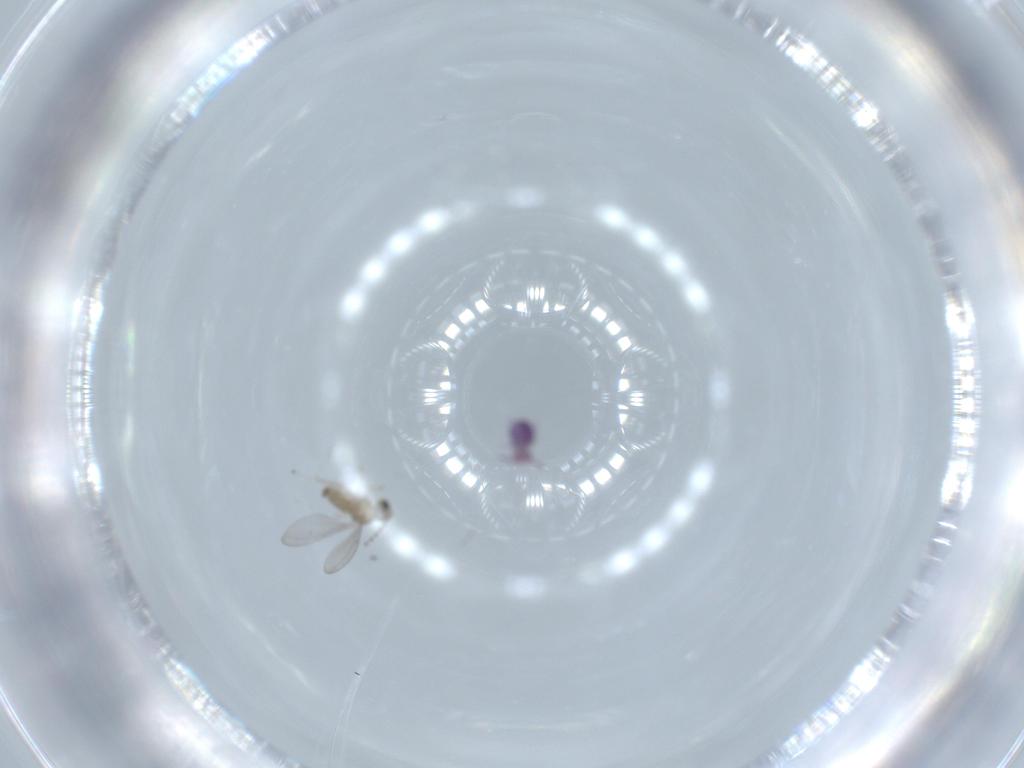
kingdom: Animalia
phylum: Arthropoda
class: Insecta
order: Diptera
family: Cecidomyiidae
